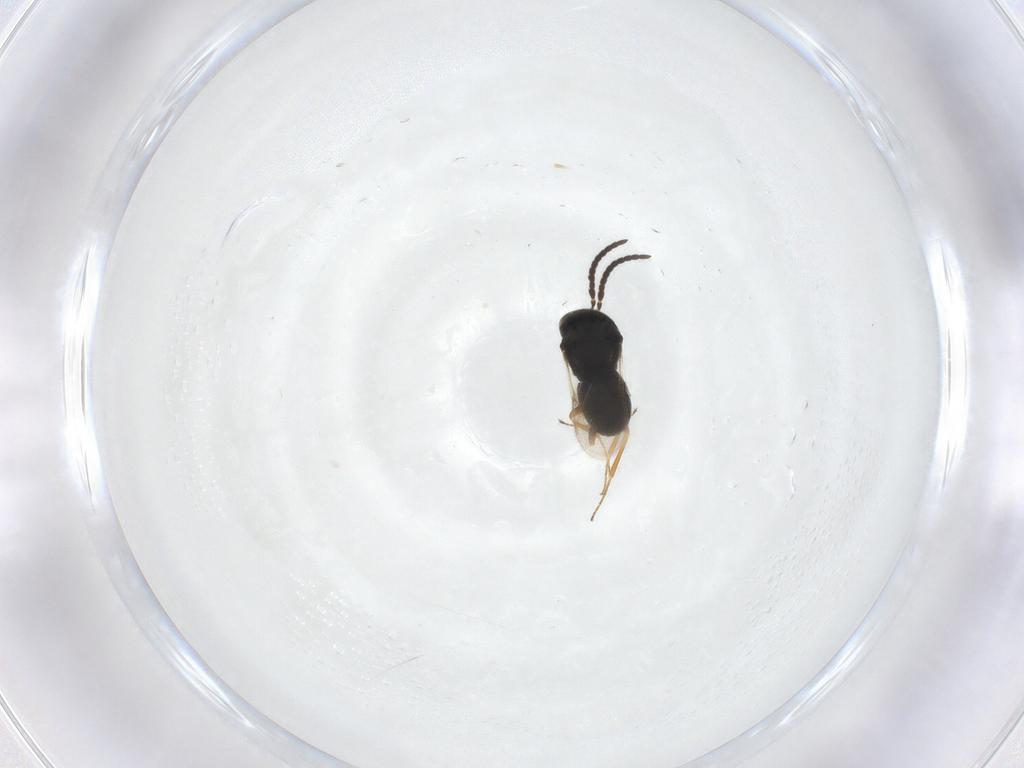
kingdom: Animalia
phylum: Arthropoda
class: Insecta
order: Hymenoptera
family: Scelionidae
